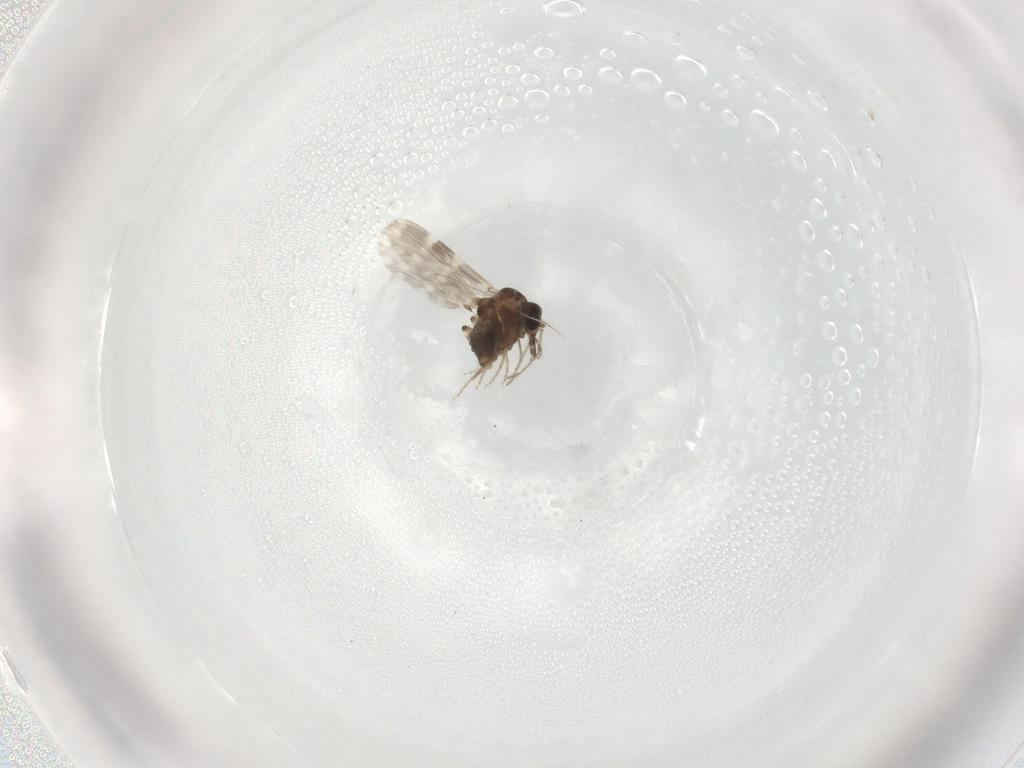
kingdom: Animalia
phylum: Arthropoda
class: Insecta
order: Diptera
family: Ceratopogonidae
